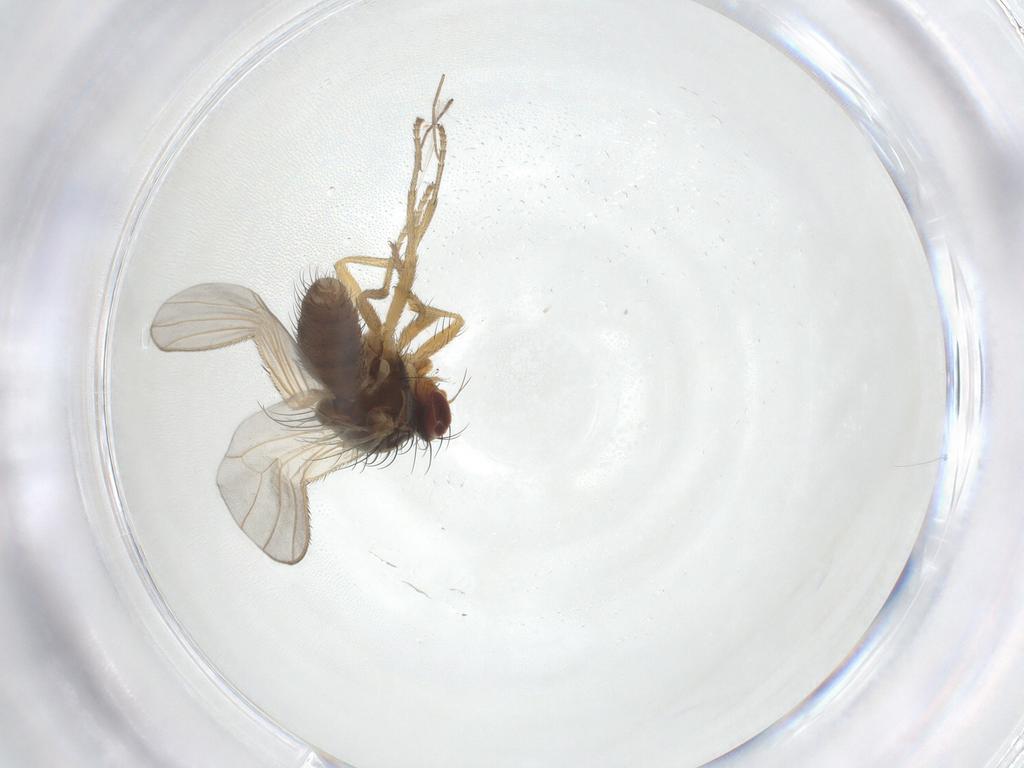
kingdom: Animalia
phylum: Arthropoda
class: Insecta
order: Diptera
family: Heleomyzidae
